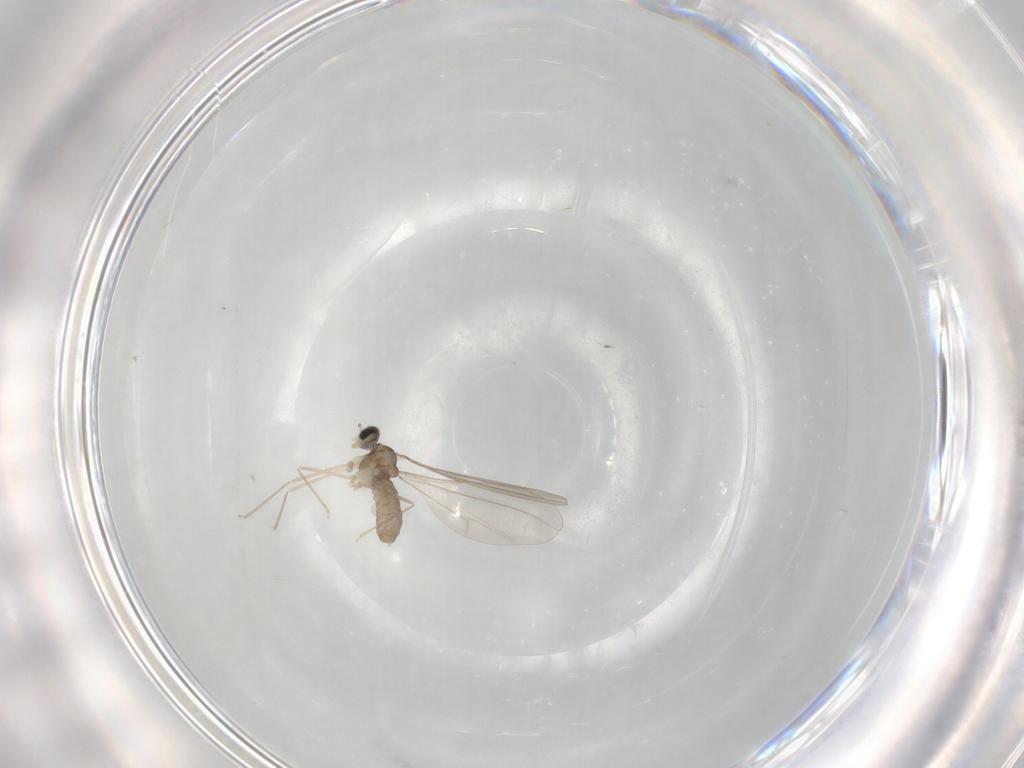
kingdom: Animalia
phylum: Arthropoda
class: Insecta
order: Diptera
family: Cecidomyiidae
